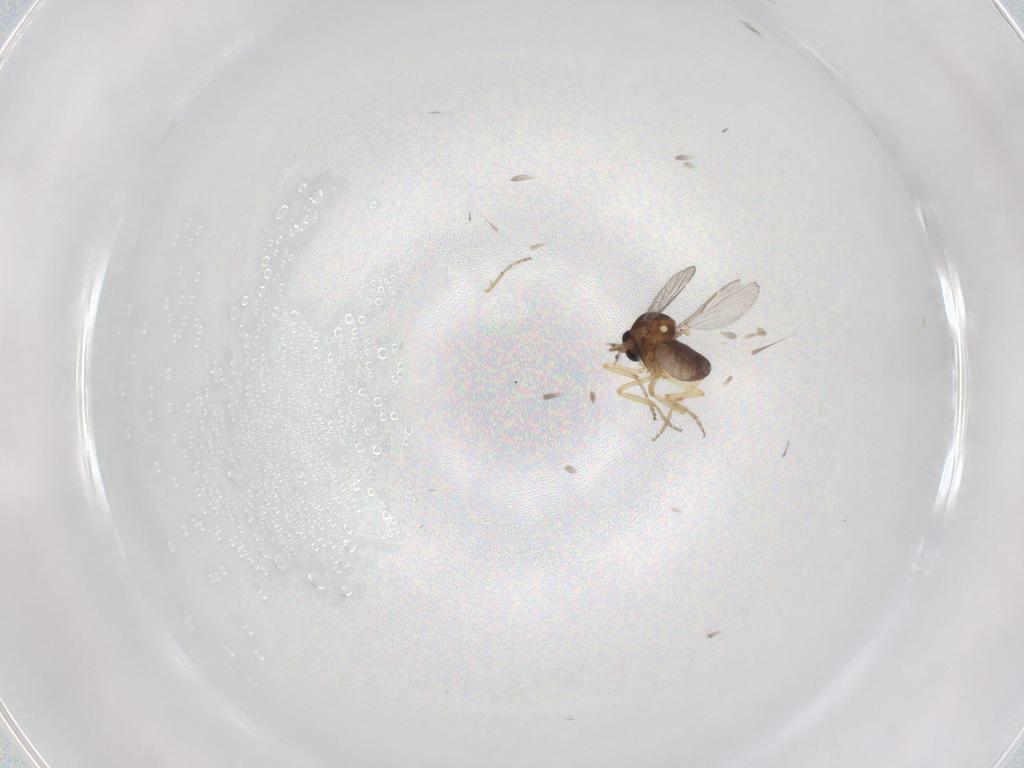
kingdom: Animalia
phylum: Arthropoda
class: Insecta
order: Diptera
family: Ceratopogonidae
